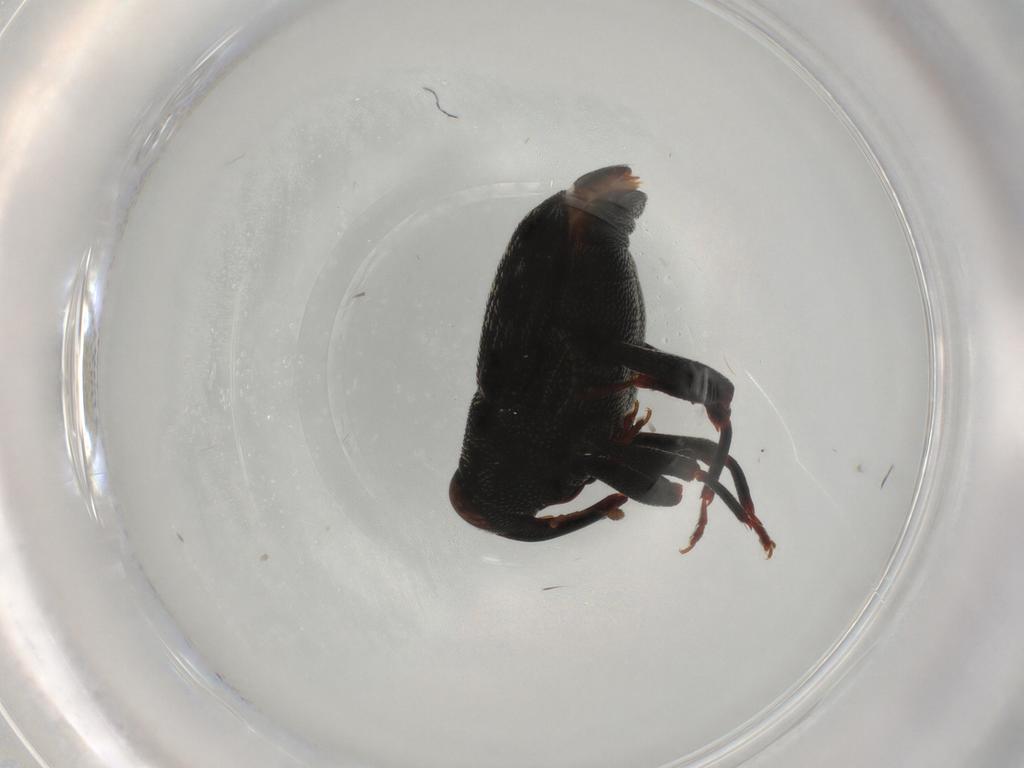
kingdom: Animalia
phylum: Arthropoda
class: Insecta
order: Coleoptera
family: Curculionidae
